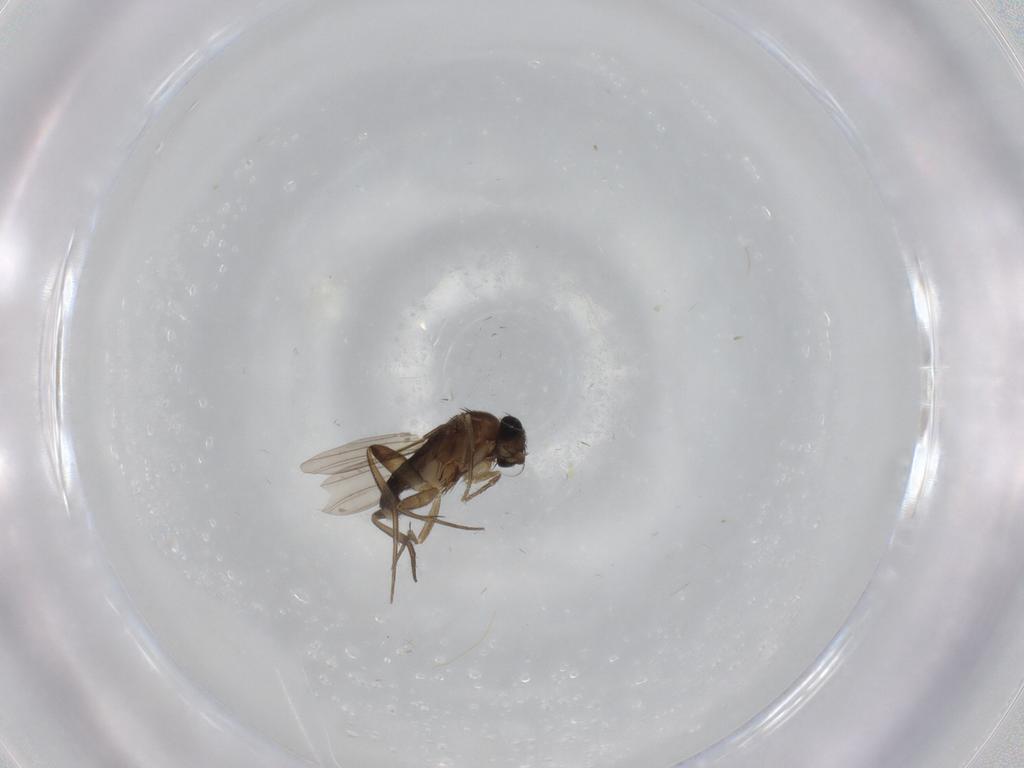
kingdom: Animalia
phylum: Arthropoda
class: Insecta
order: Diptera
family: Phoridae
